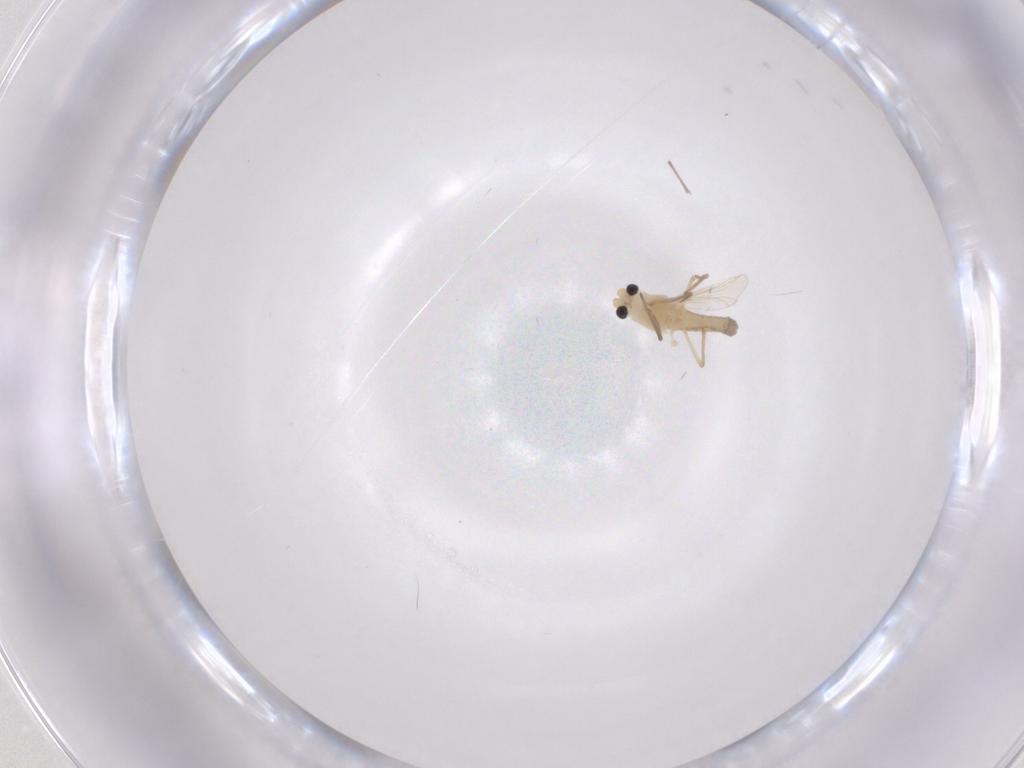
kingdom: Animalia
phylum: Arthropoda
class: Insecta
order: Diptera
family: Chironomidae
